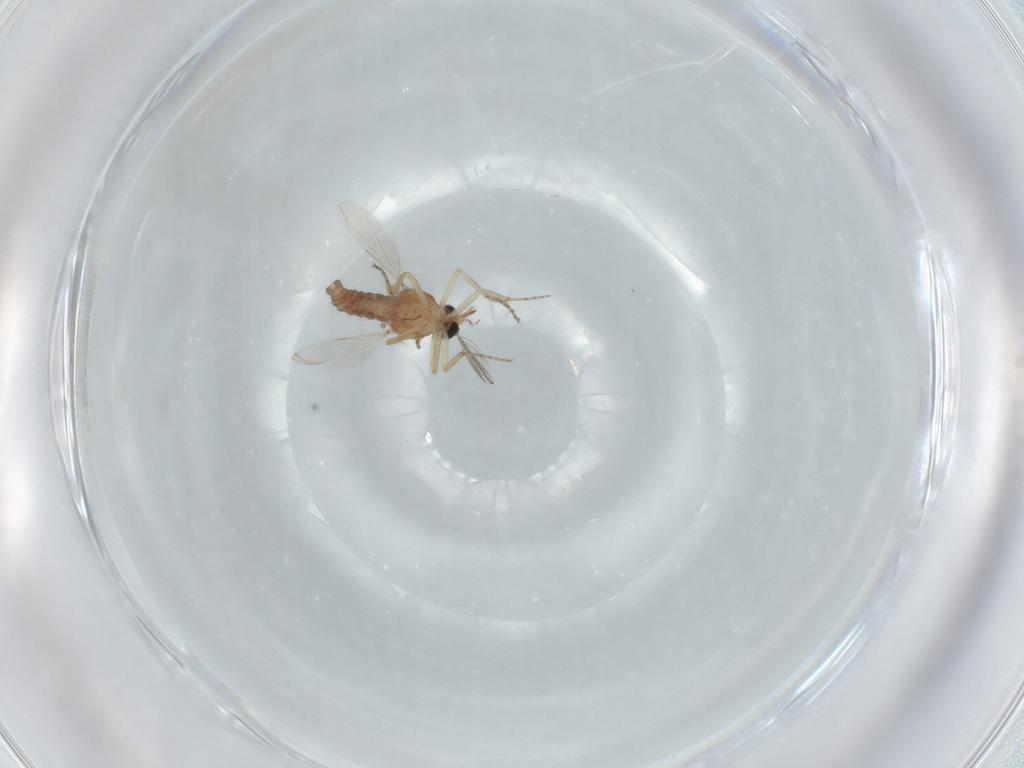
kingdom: Animalia
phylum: Arthropoda
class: Insecta
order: Diptera
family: Ceratopogonidae
